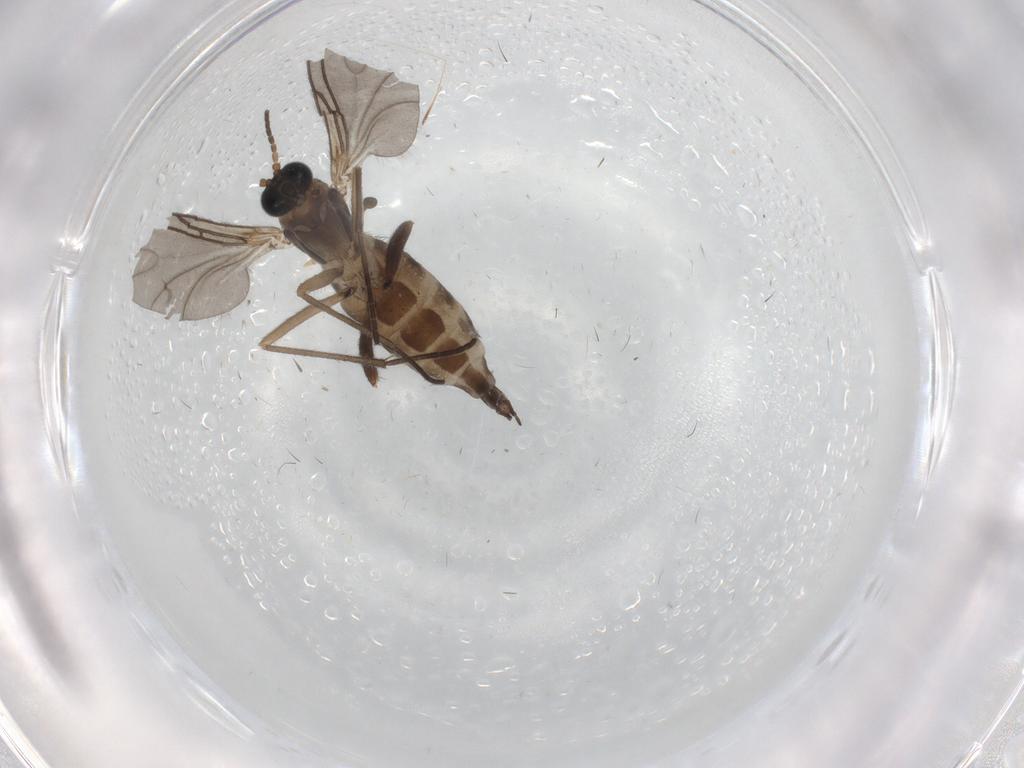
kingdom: Animalia
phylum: Arthropoda
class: Insecta
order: Diptera
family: Sciaridae
